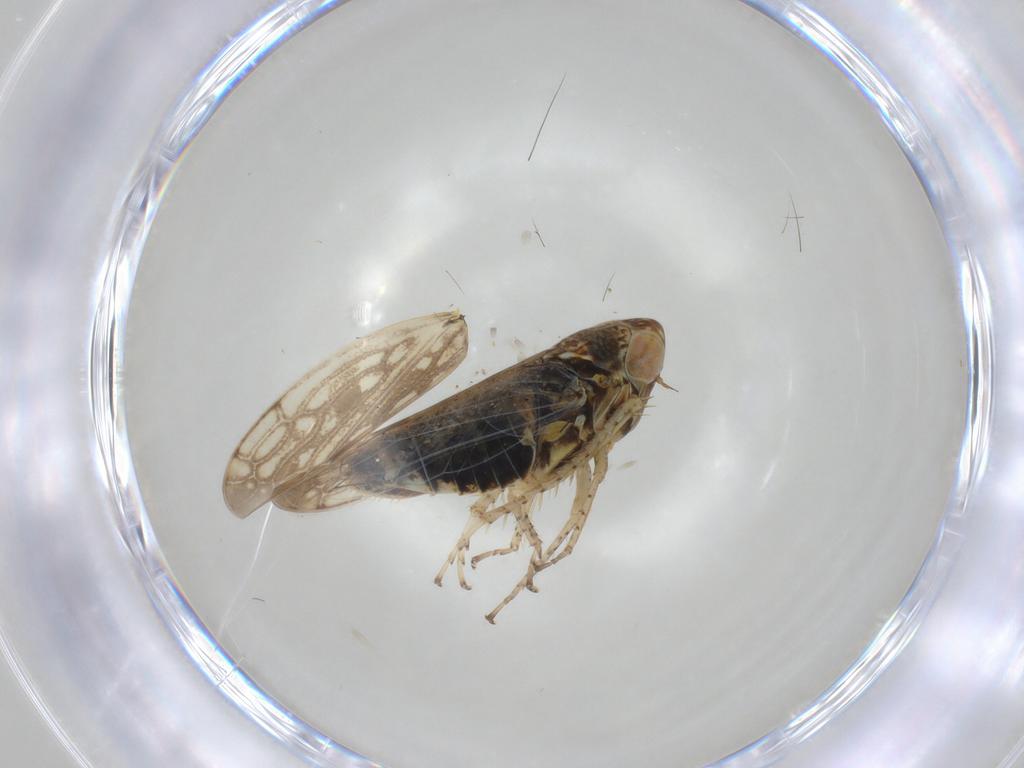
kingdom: Animalia
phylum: Arthropoda
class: Insecta
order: Hemiptera
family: Cicadellidae
